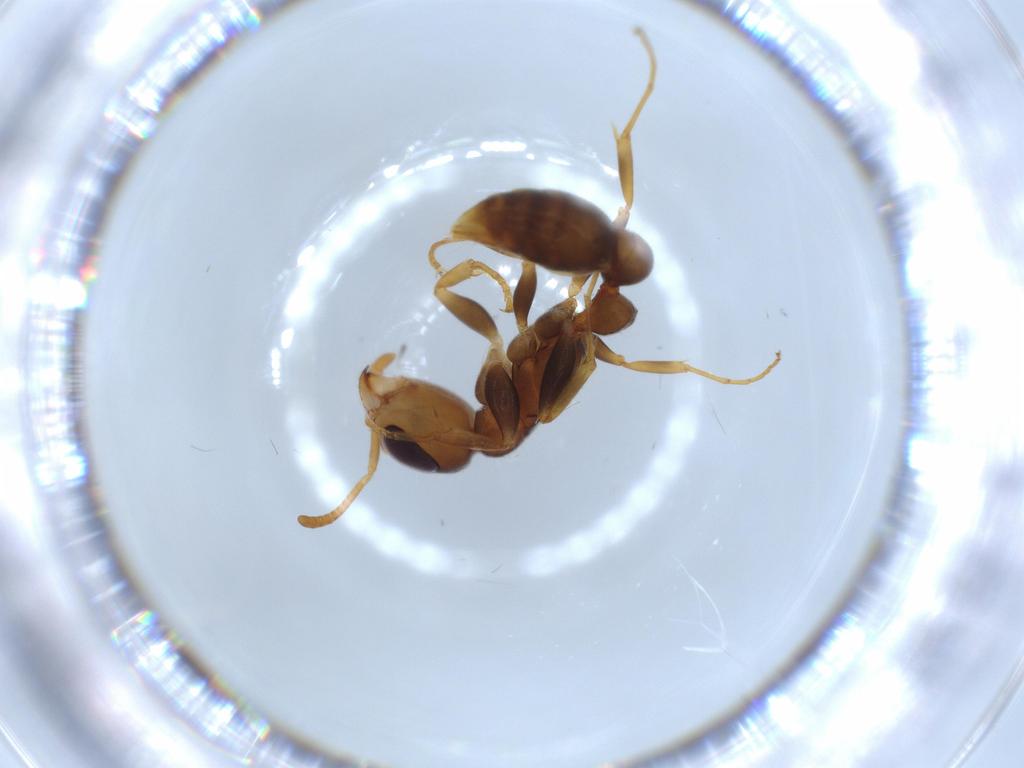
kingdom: Animalia
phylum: Arthropoda
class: Insecta
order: Hymenoptera
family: Formicidae
